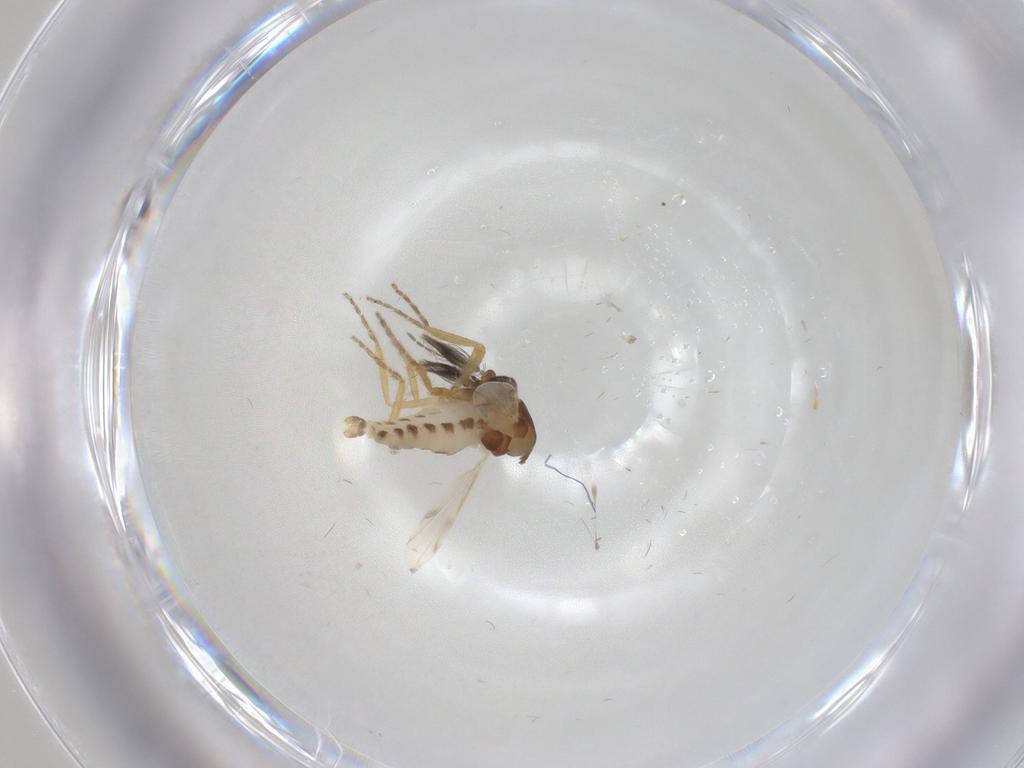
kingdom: Animalia
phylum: Arthropoda
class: Insecta
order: Diptera
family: Ceratopogonidae
